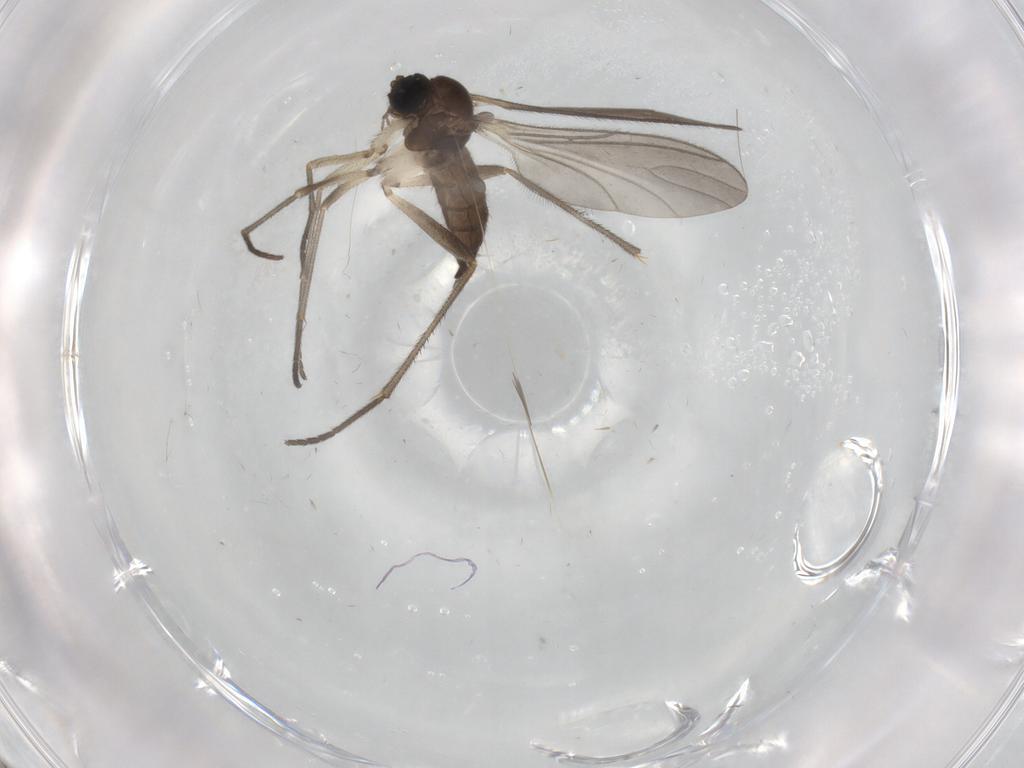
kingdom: Animalia
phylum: Arthropoda
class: Insecta
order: Diptera
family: Sciaridae
